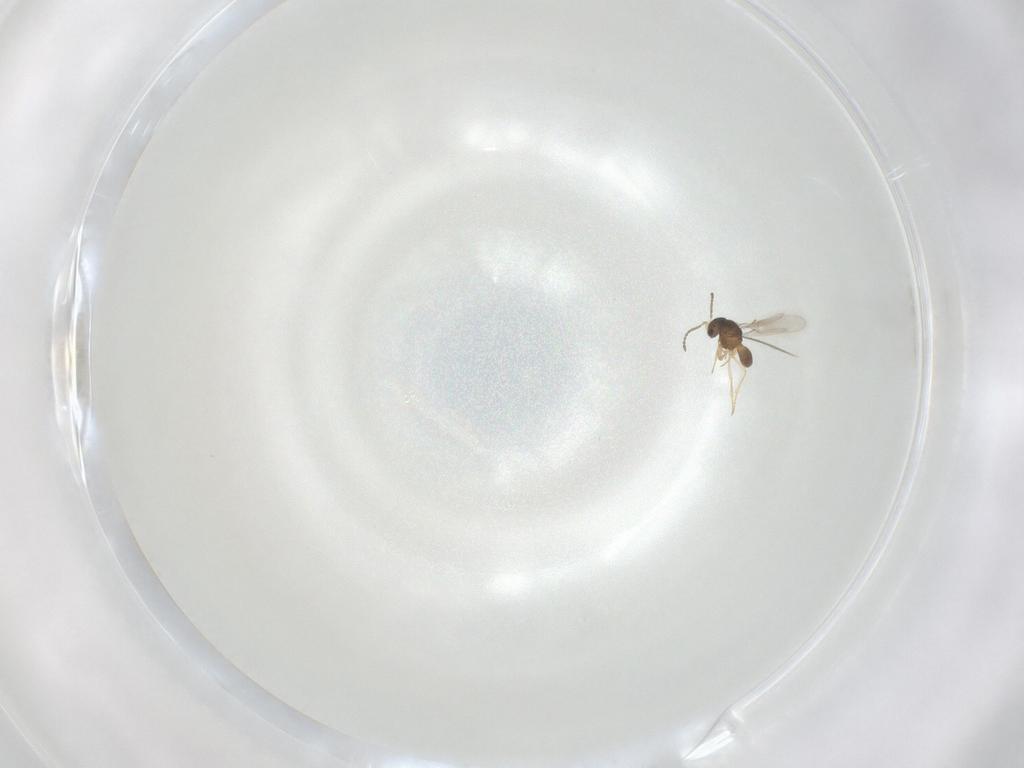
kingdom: Animalia
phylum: Arthropoda
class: Insecta
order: Hymenoptera
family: Scelionidae
